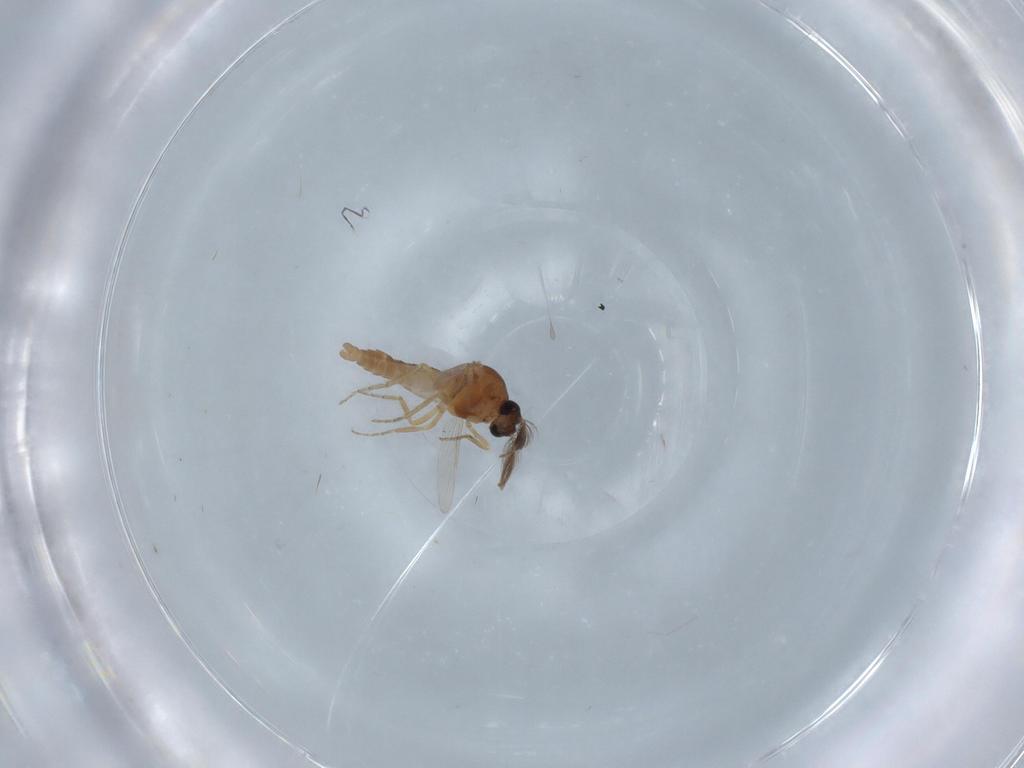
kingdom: Animalia
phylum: Arthropoda
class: Insecta
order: Diptera
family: Ceratopogonidae
